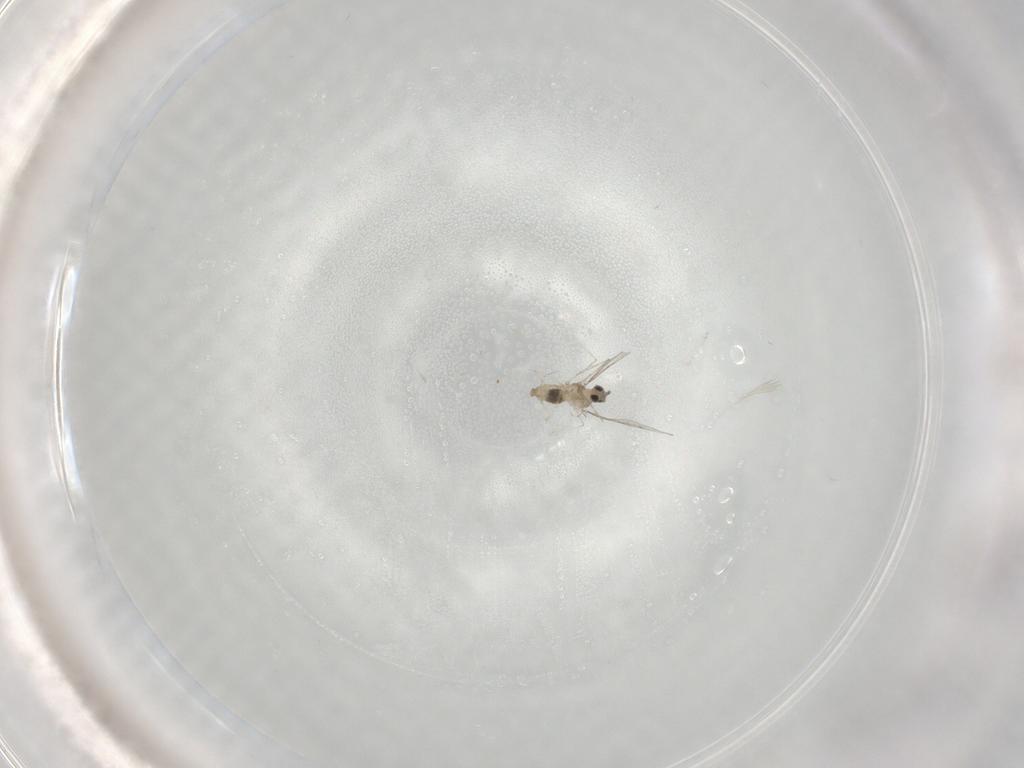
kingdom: Animalia
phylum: Arthropoda
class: Insecta
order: Diptera
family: Cecidomyiidae
